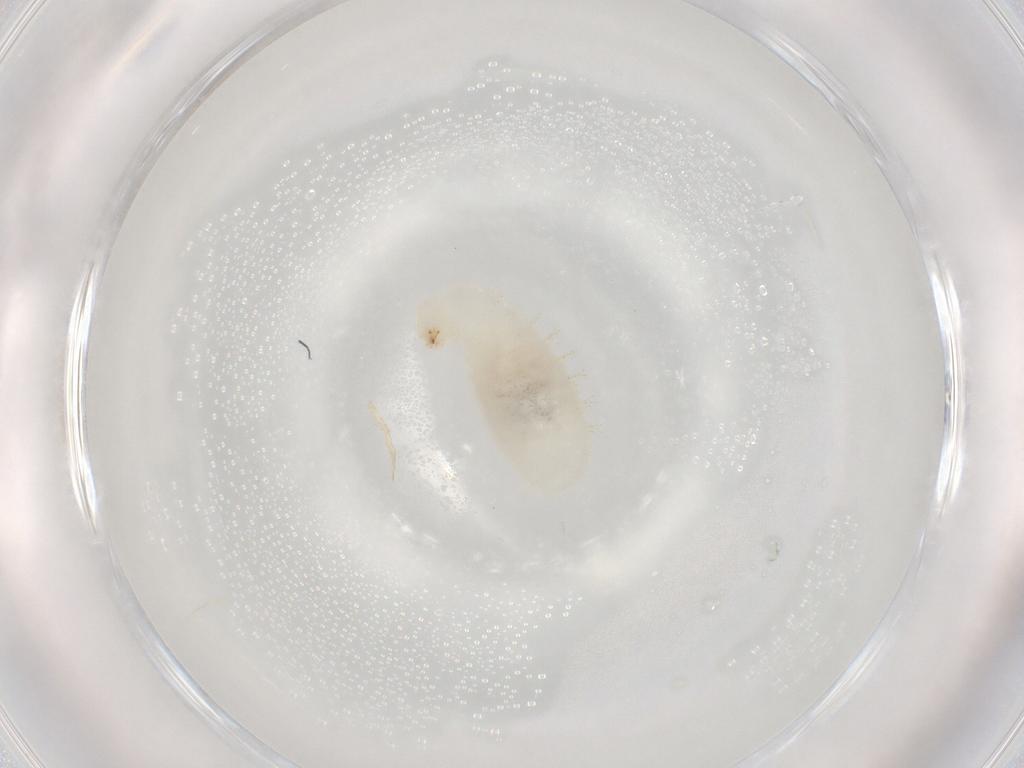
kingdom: Animalia
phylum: Arthropoda
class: Insecta
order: Hymenoptera
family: Formicidae
